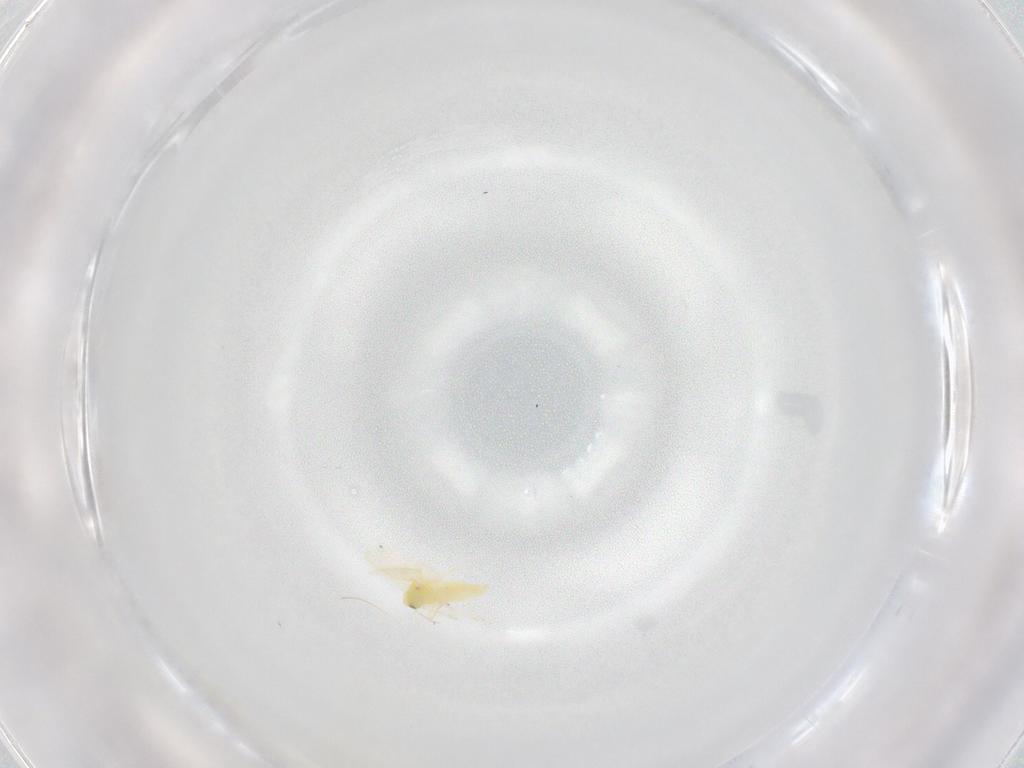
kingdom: Animalia
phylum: Arthropoda
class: Insecta
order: Hemiptera
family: Aleyrodidae
